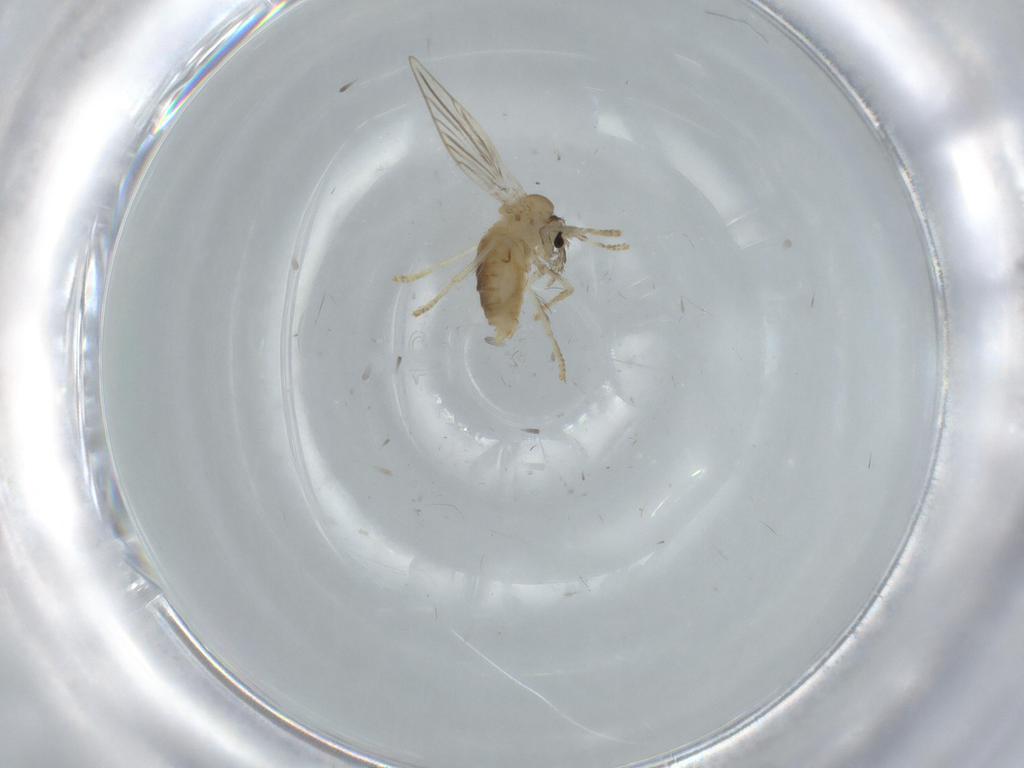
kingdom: Animalia
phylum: Arthropoda
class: Insecta
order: Diptera
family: Psychodidae
